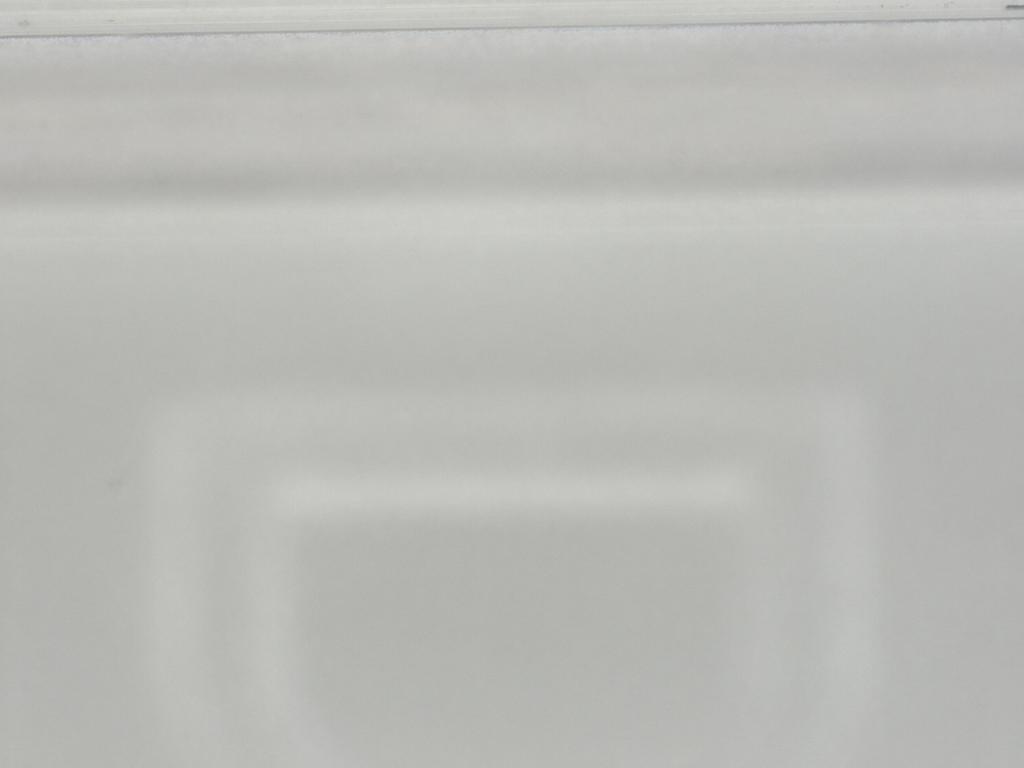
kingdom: Animalia
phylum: Arthropoda
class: Insecta
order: Diptera
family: Ceratopogonidae
